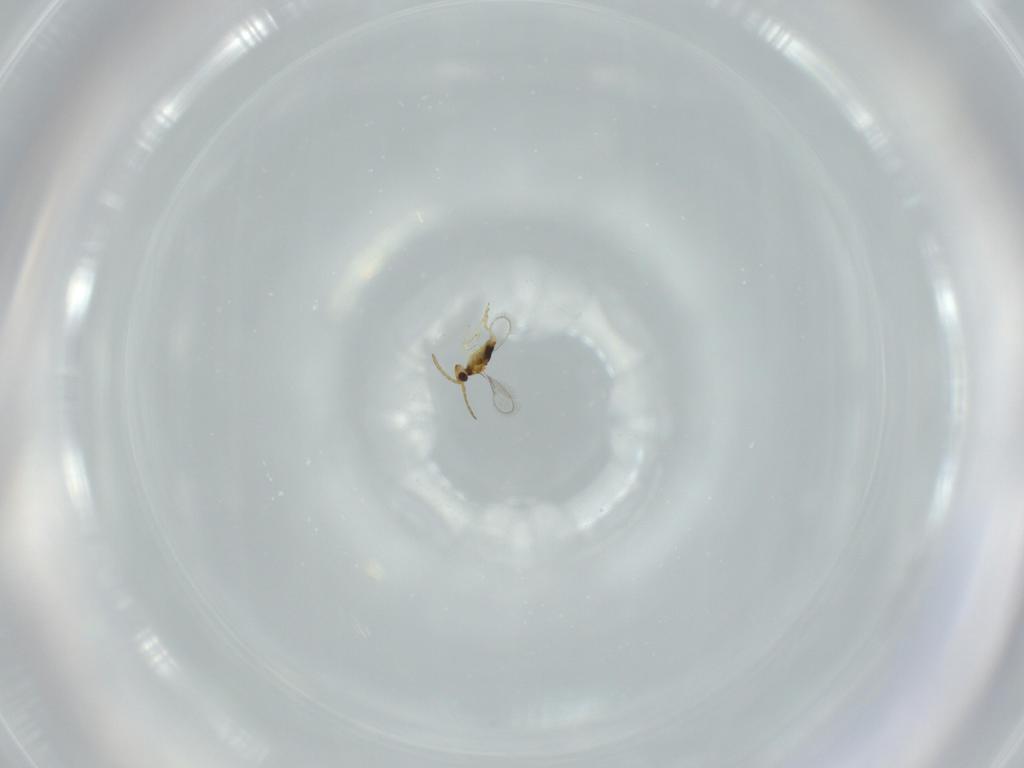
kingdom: Animalia
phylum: Arthropoda
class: Insecta
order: Hymenoptera
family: Aphelinidae
